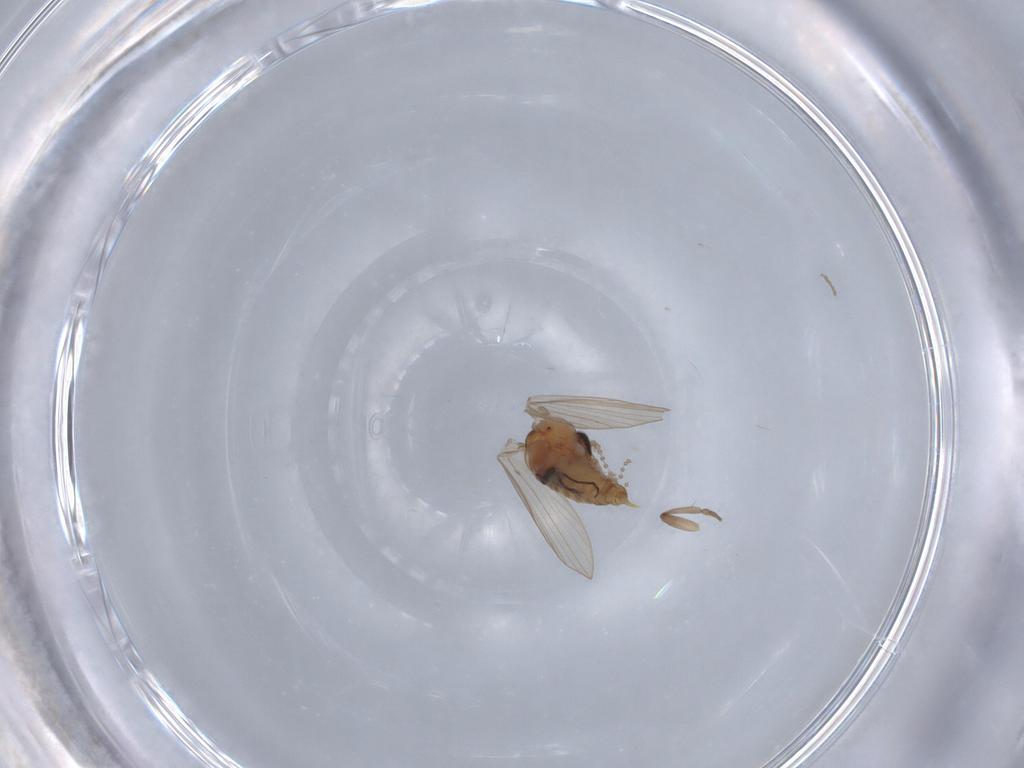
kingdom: Animalia
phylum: Arthropoda
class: Insecta
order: Diptera
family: Psychodidae
